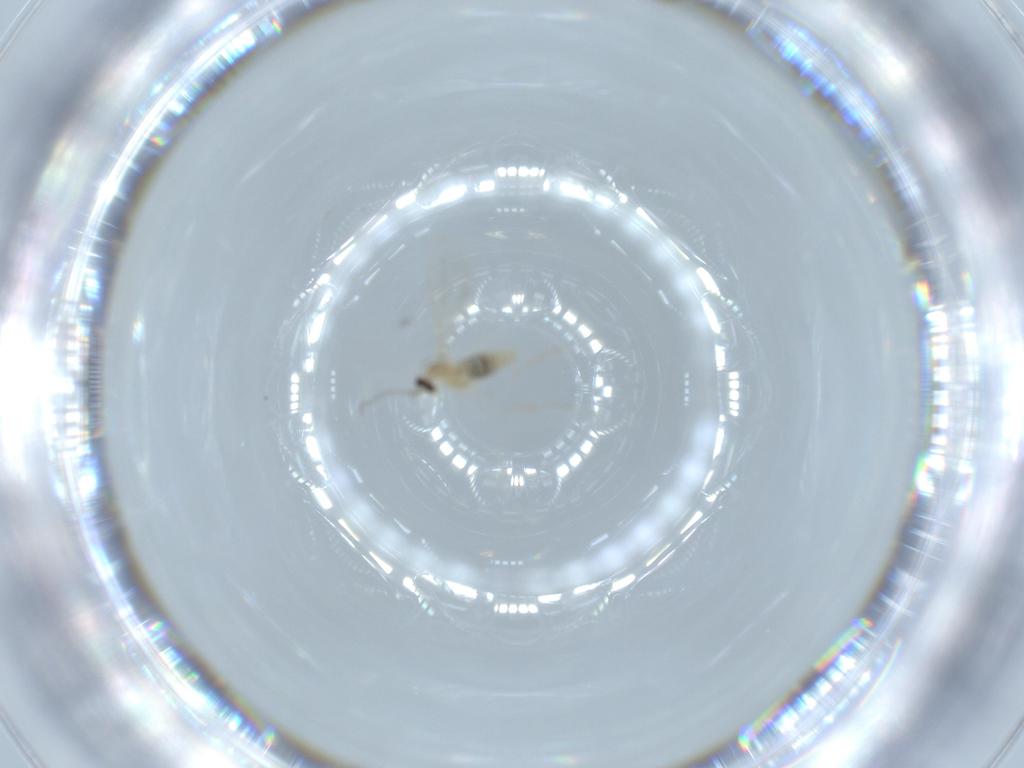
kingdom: Animalia
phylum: Arthropoda
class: Insecta
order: Diptera
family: Cecidomyiidae
